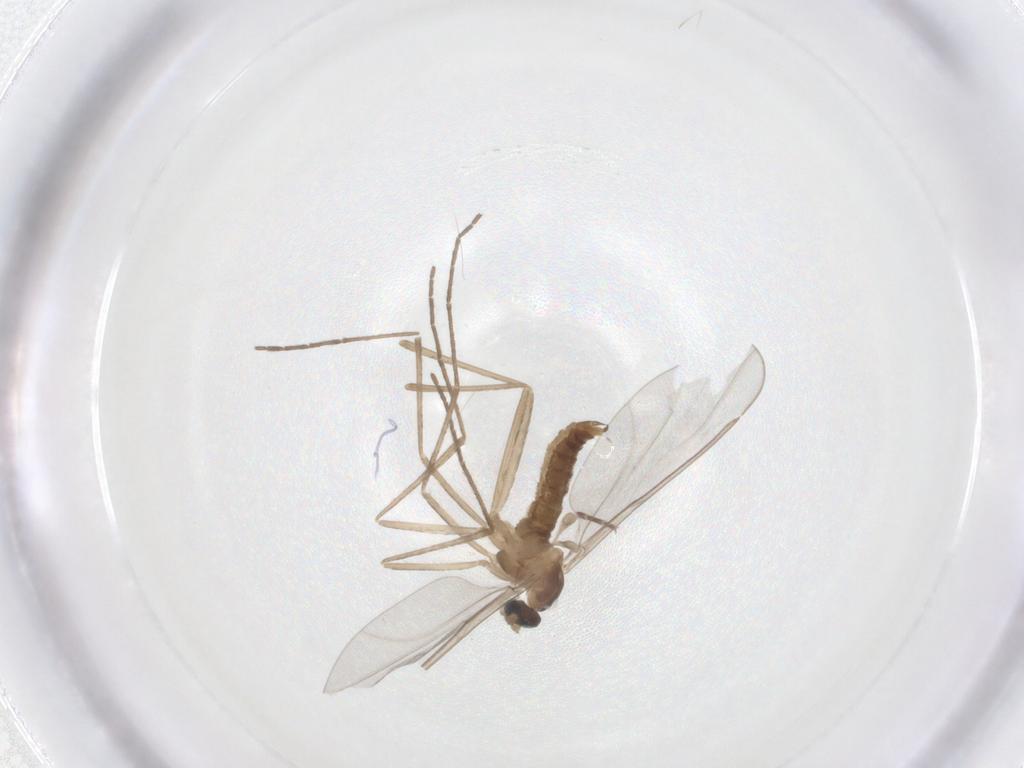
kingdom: Animalia
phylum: Arthropoda
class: Insecta
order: Diptera
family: Cecidomyiidae
